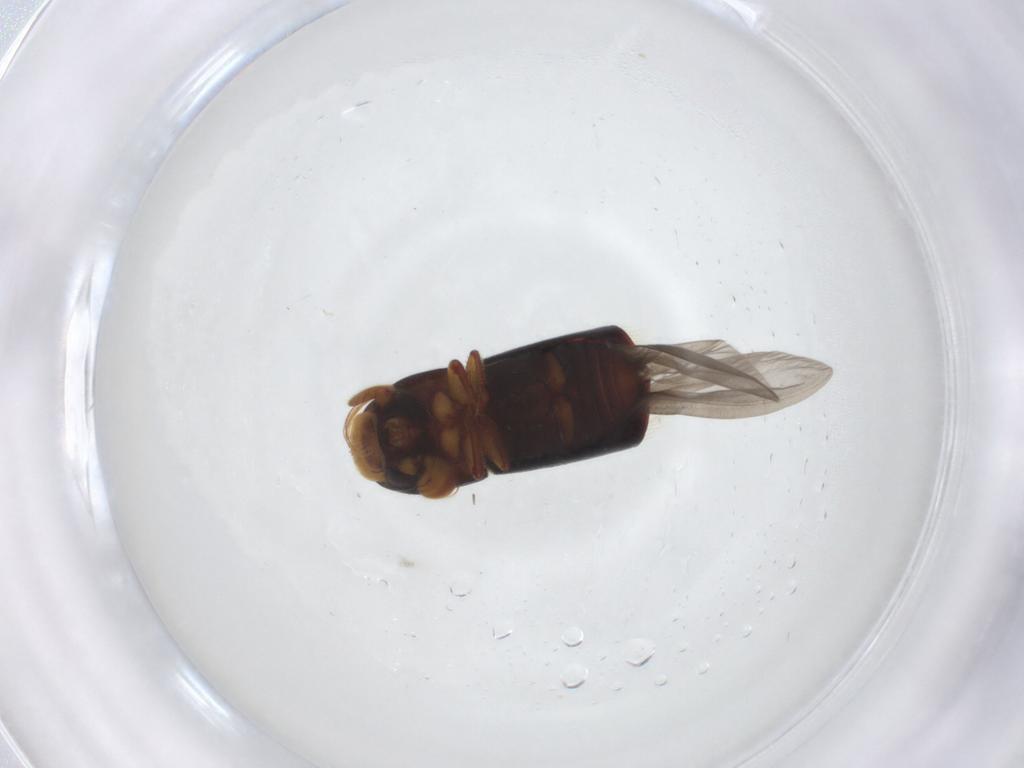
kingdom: Animalia
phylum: Arthropoda
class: Insecta
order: Coleoptera
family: Curculionidae
